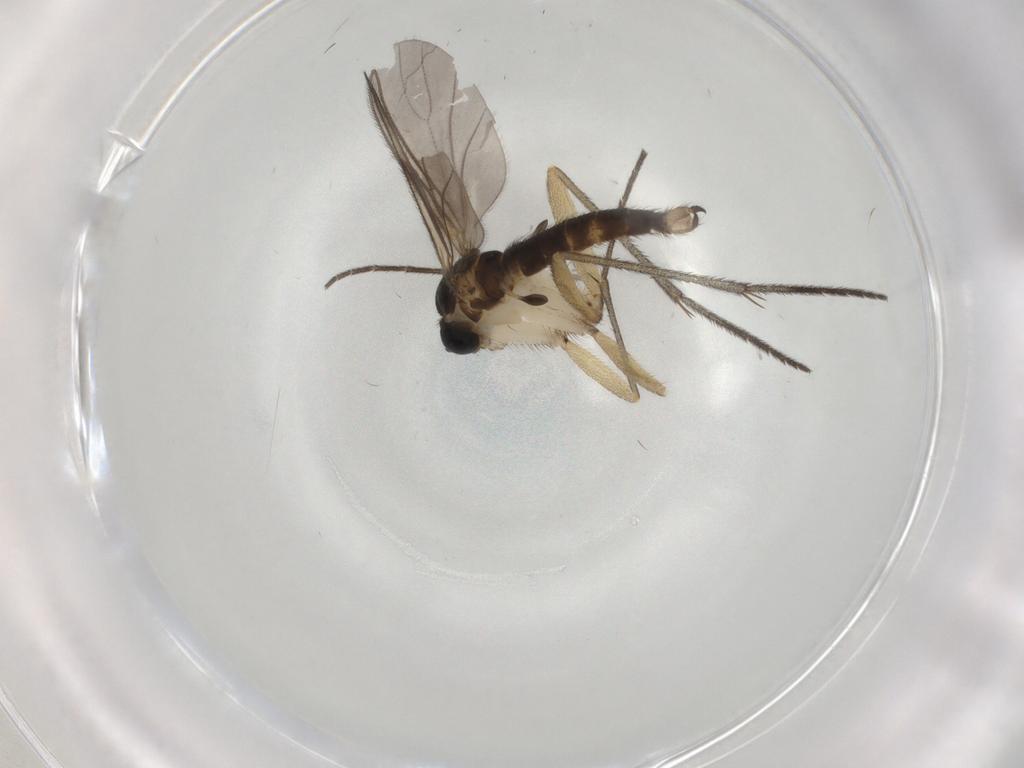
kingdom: Animalia
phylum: Arthropoda
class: Insecta
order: Diptera
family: Sciaridae
